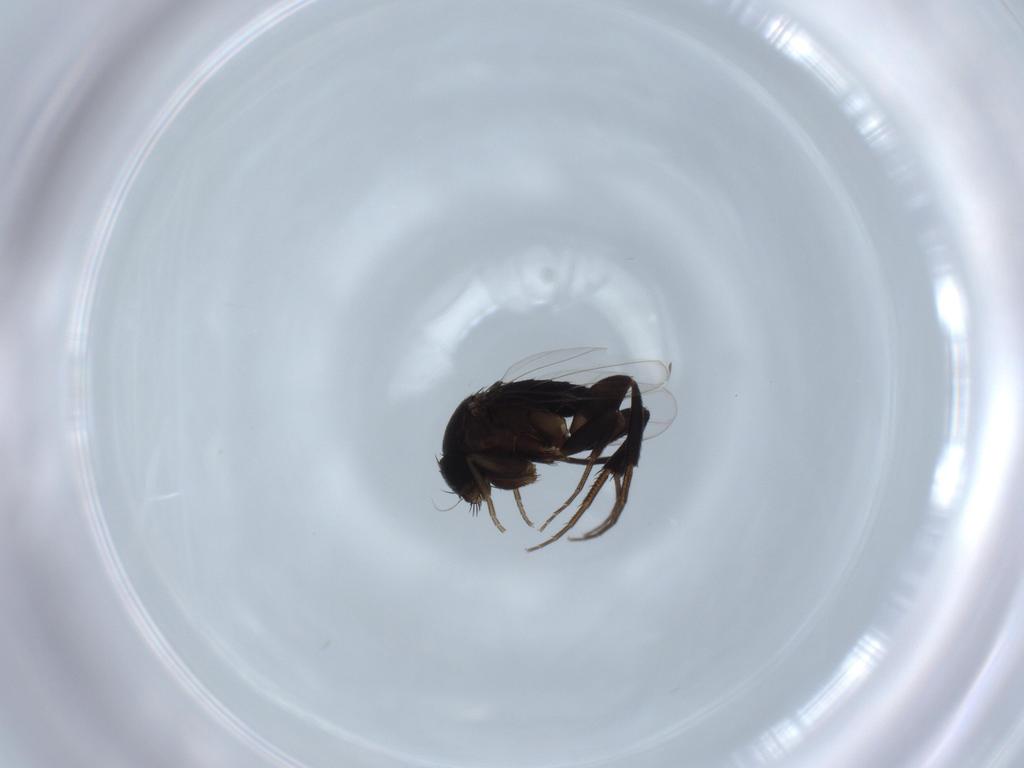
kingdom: Animalia
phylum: Arthropoda
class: Insecta
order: Diptera
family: Phoridae
